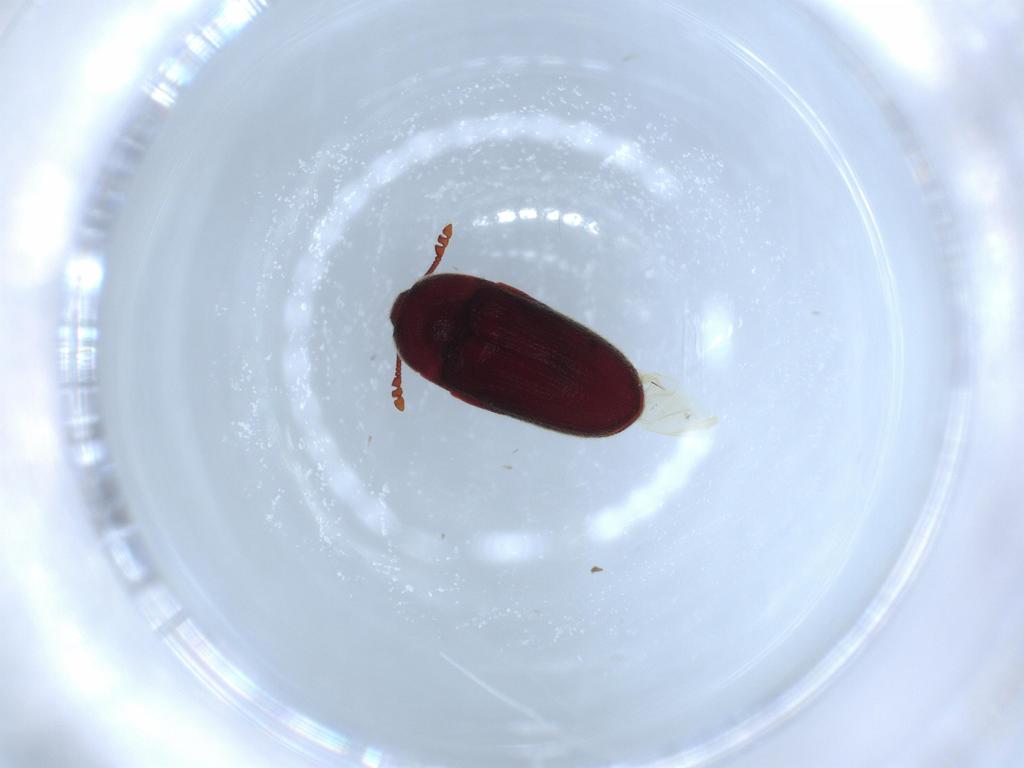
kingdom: Animalia
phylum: Arthropoda
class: Insecta
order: Coleoptera
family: Throscidae
